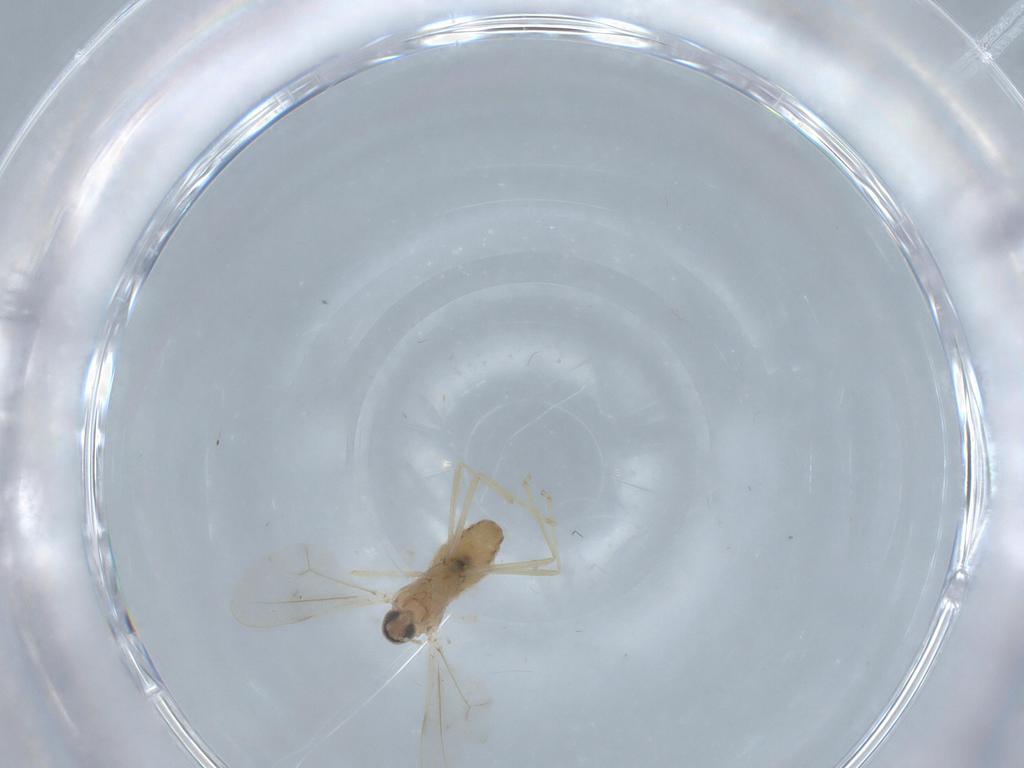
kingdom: Animalia
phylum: Arthropoda
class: Insecta
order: Diptera
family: Cecidomyiidae
